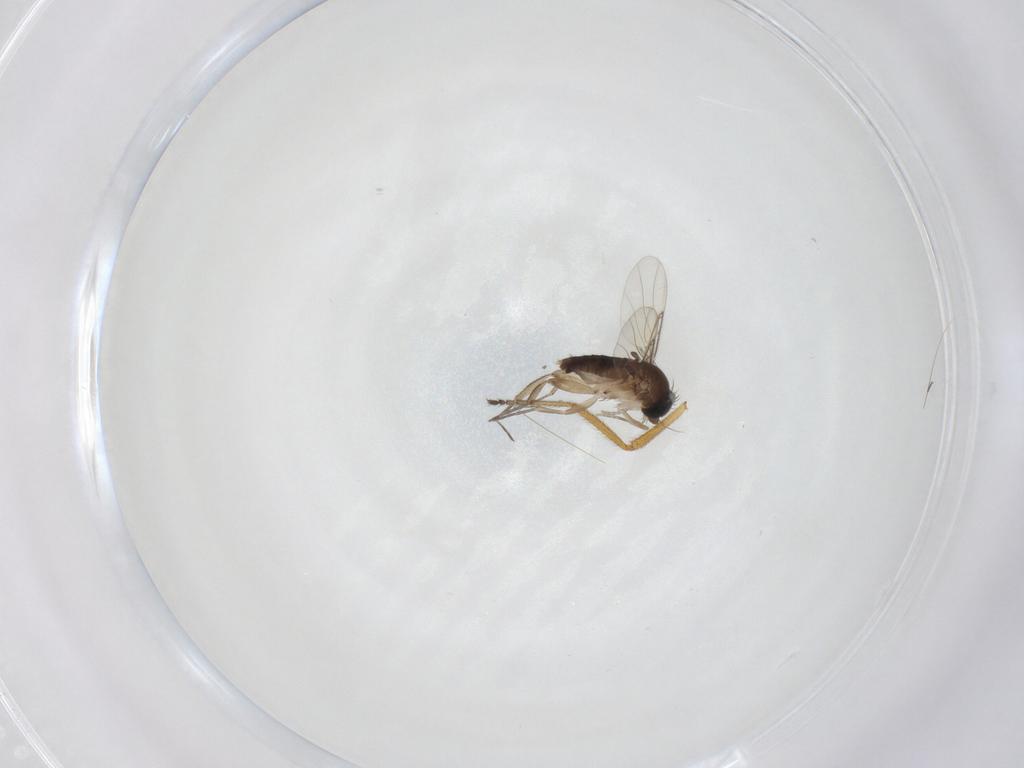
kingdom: Animalia
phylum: Arthropoda
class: Insecta
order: Diptera
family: Phoridae
